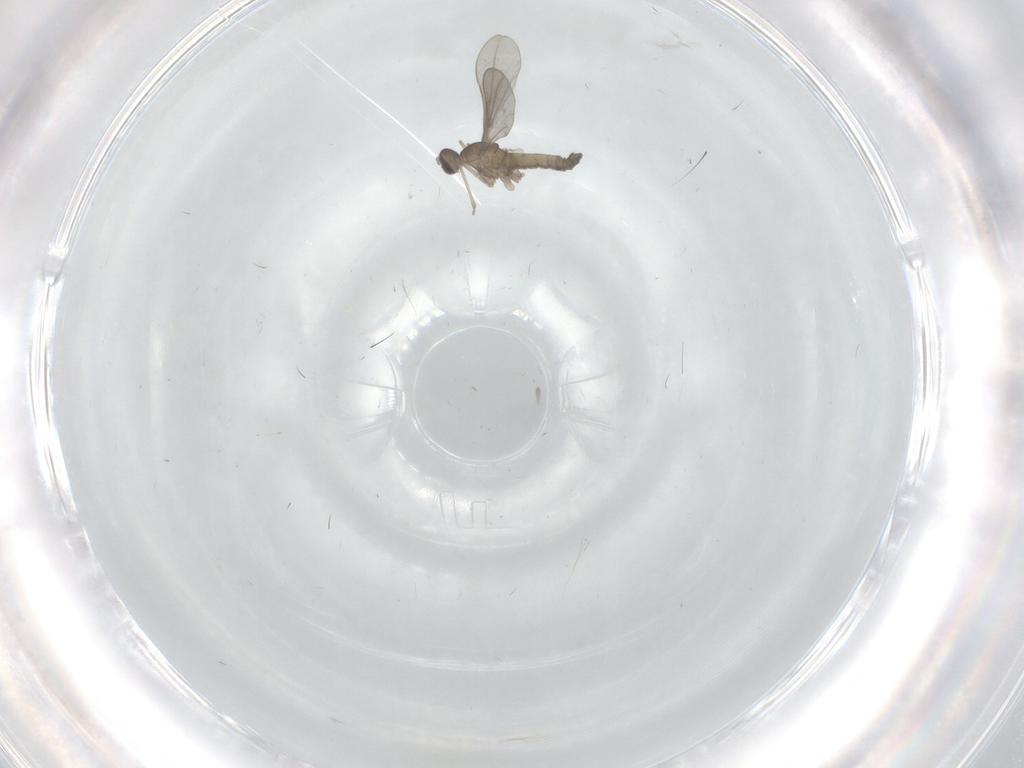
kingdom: Animalia
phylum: Arthropoda
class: Insecta
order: Diptera
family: Cecidomyiidae
